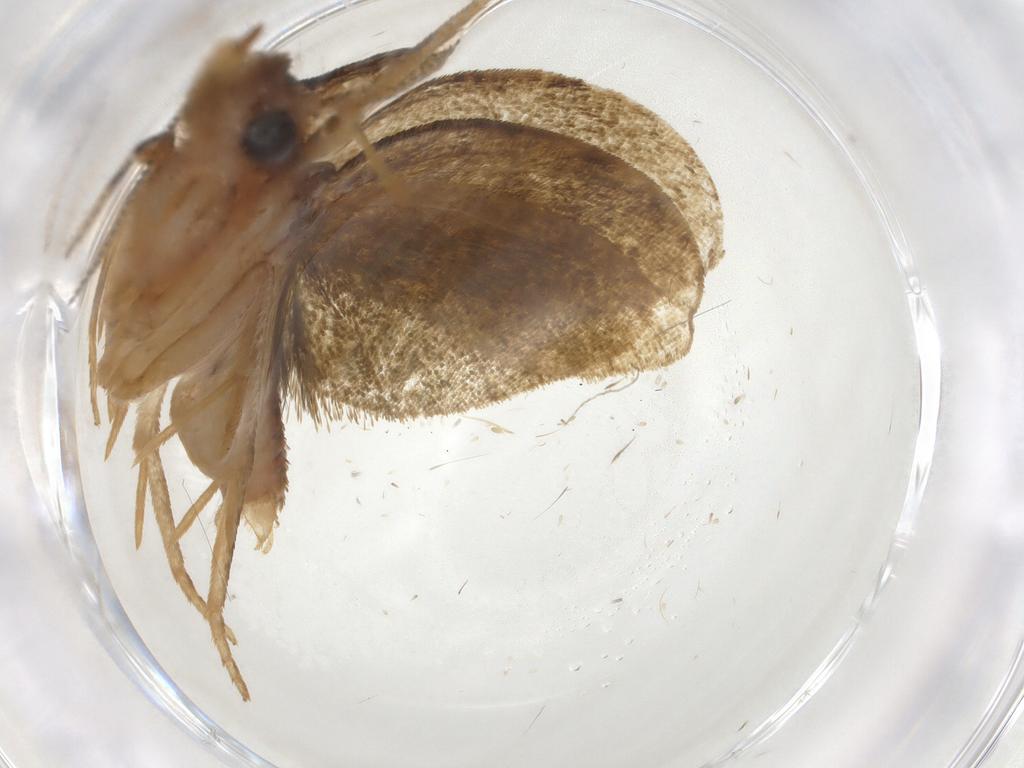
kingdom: Animalia
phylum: Arthropoda
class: Insecta
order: Lepidoptera
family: Geometridae
